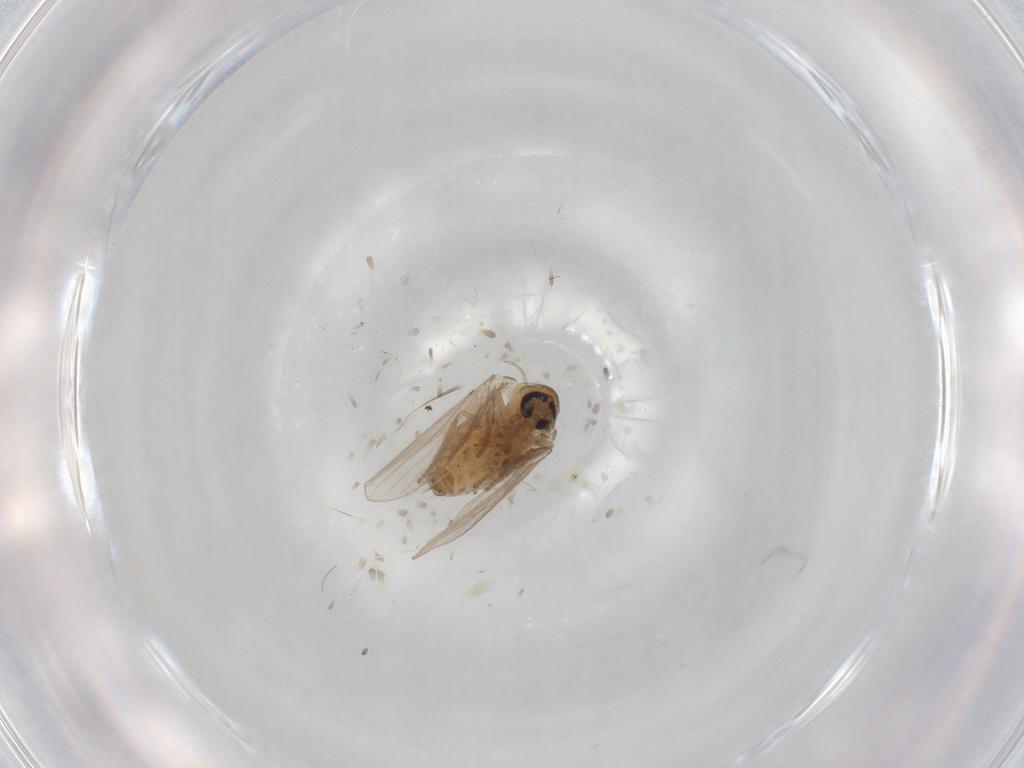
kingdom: Animalia
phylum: Arthropoda
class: Insecta
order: Diptera
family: Psychodidae
